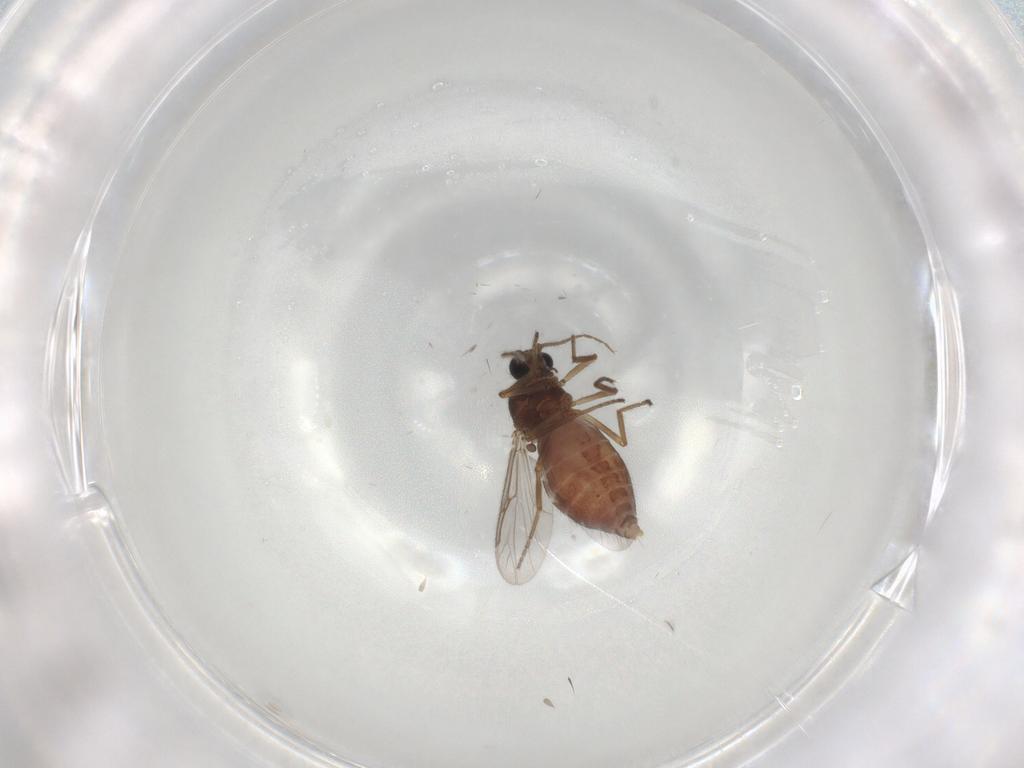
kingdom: Animalia
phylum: Arthropoda
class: Insecta
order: Diptera
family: Ceratopogonidae
